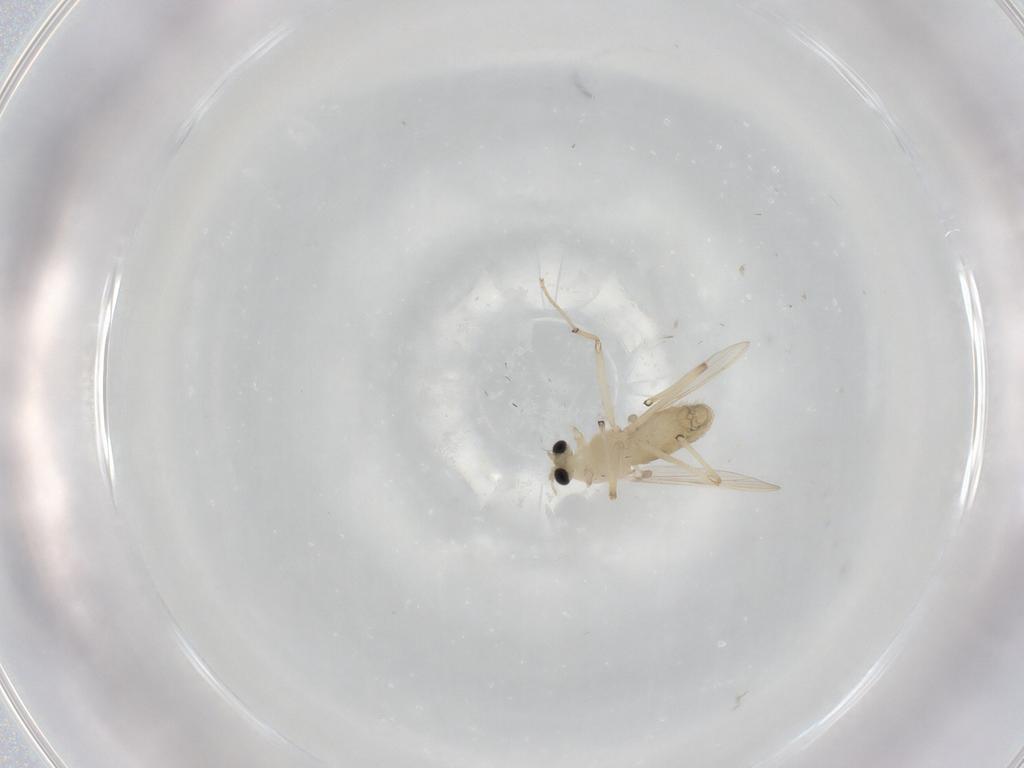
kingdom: Animalia
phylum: Arthropoda
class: Insecta
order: Diptera
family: Chironomidae
